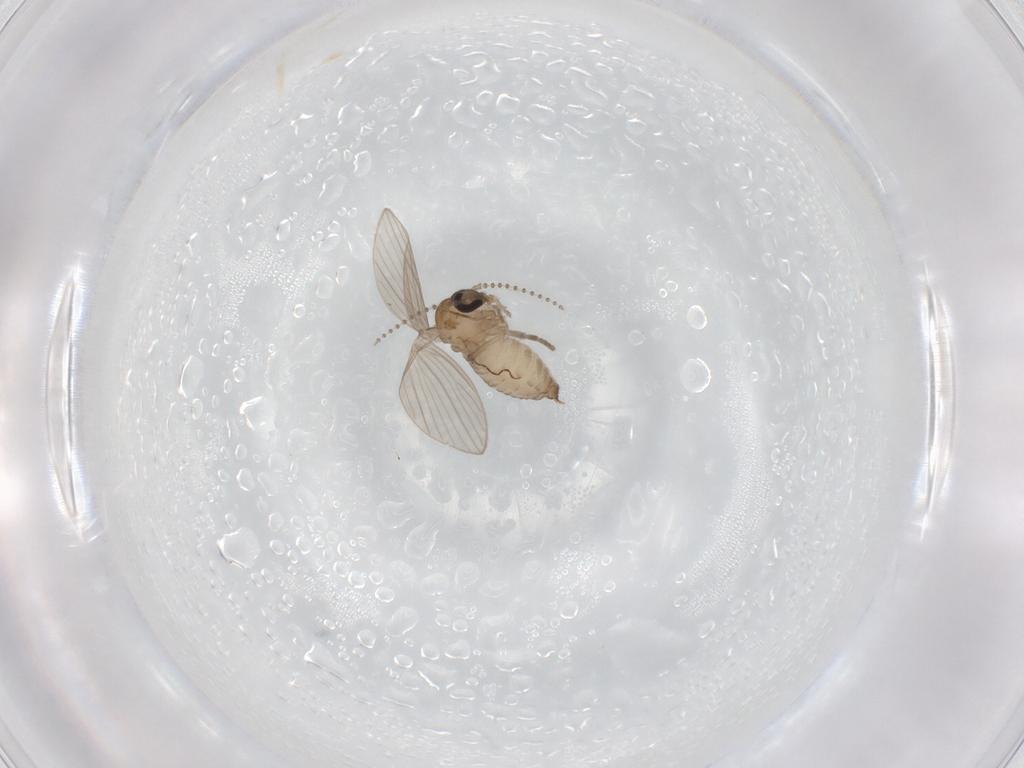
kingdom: Animalia
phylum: Arthropoda
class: Insecta
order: Diptera
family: Psychodidae
